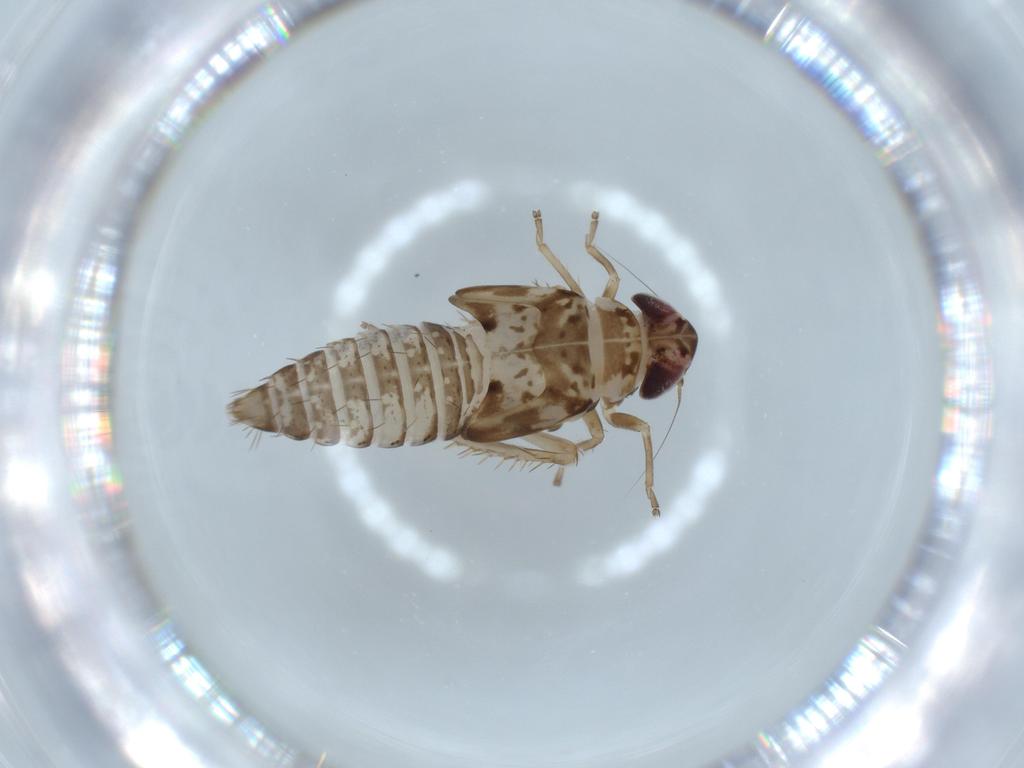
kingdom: Animalia
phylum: Arthropoda
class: Insecta
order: Hemiptera
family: Cicadellidae
